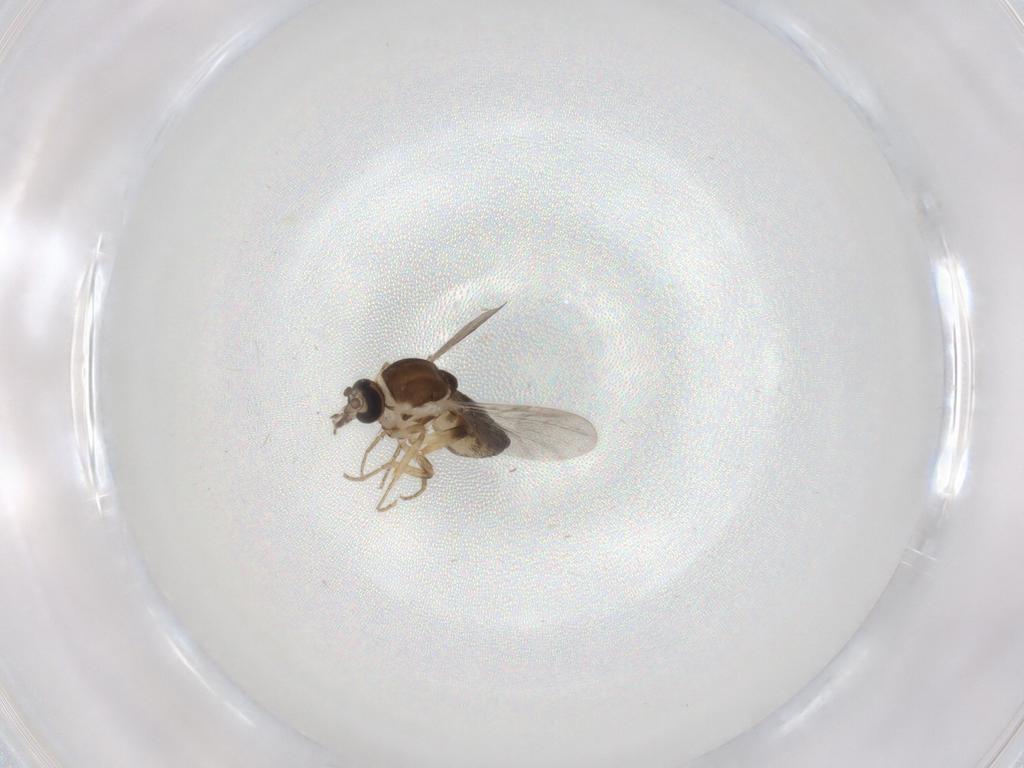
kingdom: Animalia
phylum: Arthropoda
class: Insecta
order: Diptera
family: Ceratopogonidae
